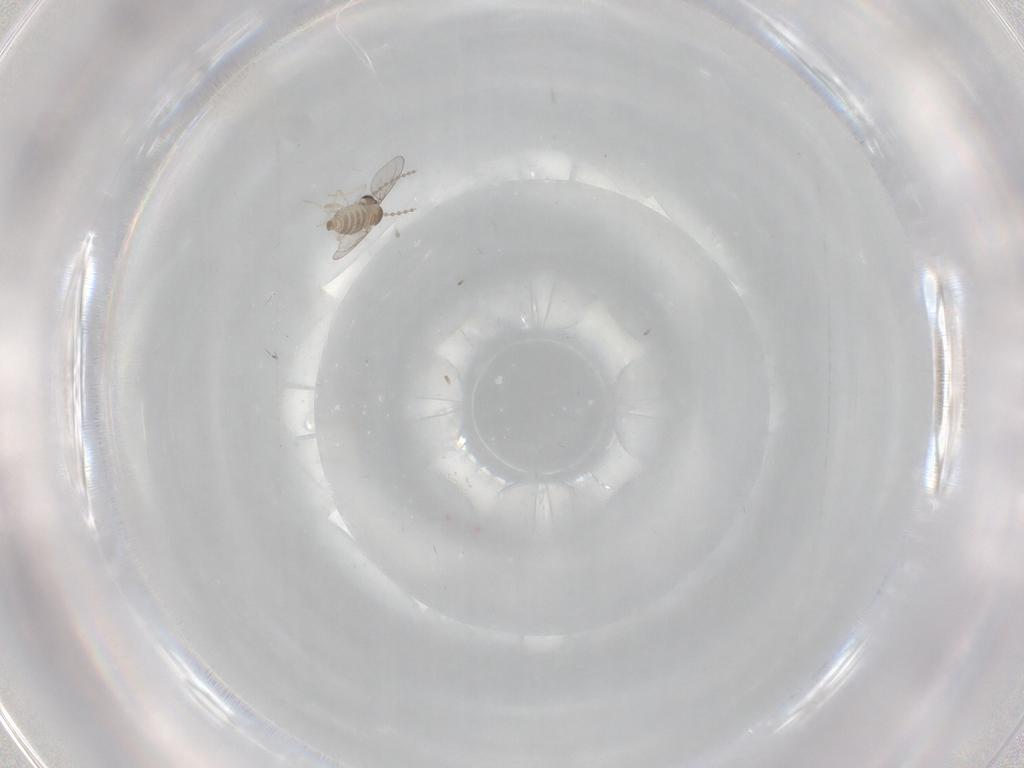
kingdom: Animalia
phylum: Arthropoda
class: Insecta
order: Diptera
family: Cecidomyiidae
